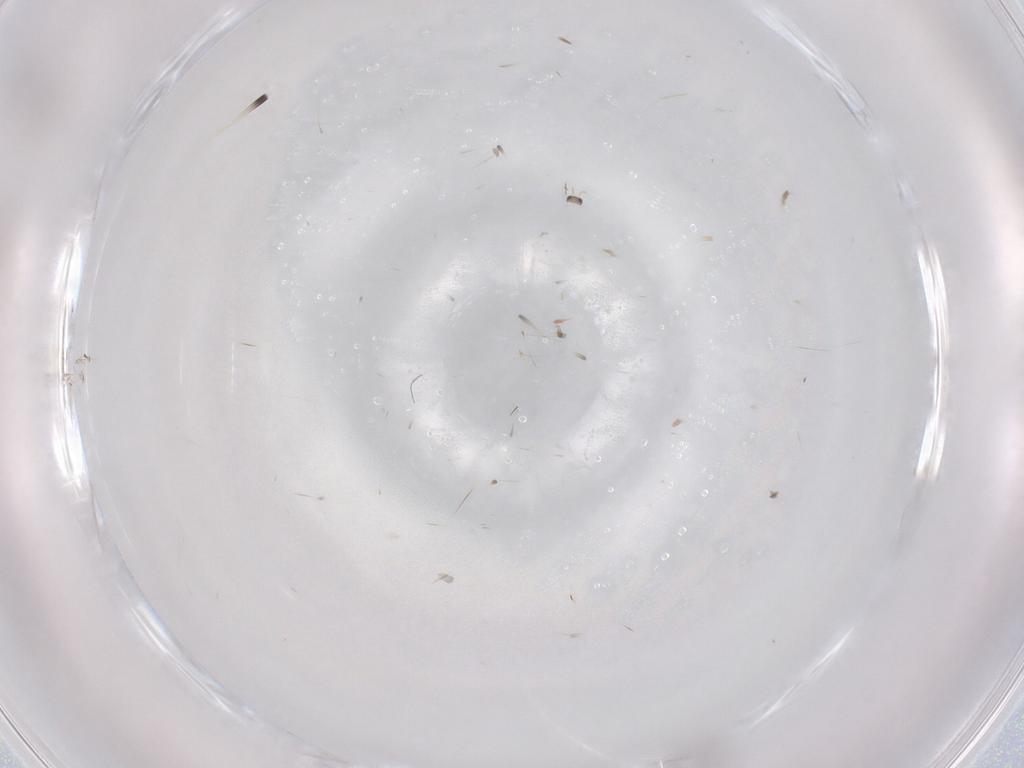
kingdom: Animalia
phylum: Arthropoda
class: Insecta
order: Hymenoptera
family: Mymaridae
